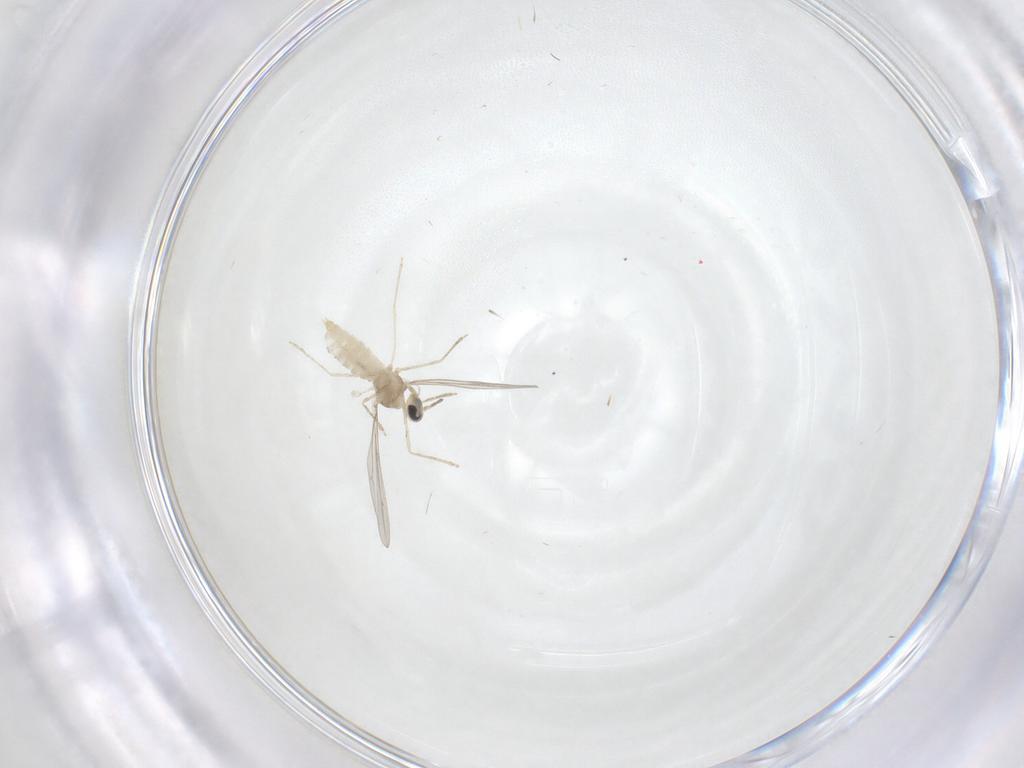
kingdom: Animalia
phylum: Arthropoda
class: Insecta
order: Diptera
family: Cecidomyiidae
